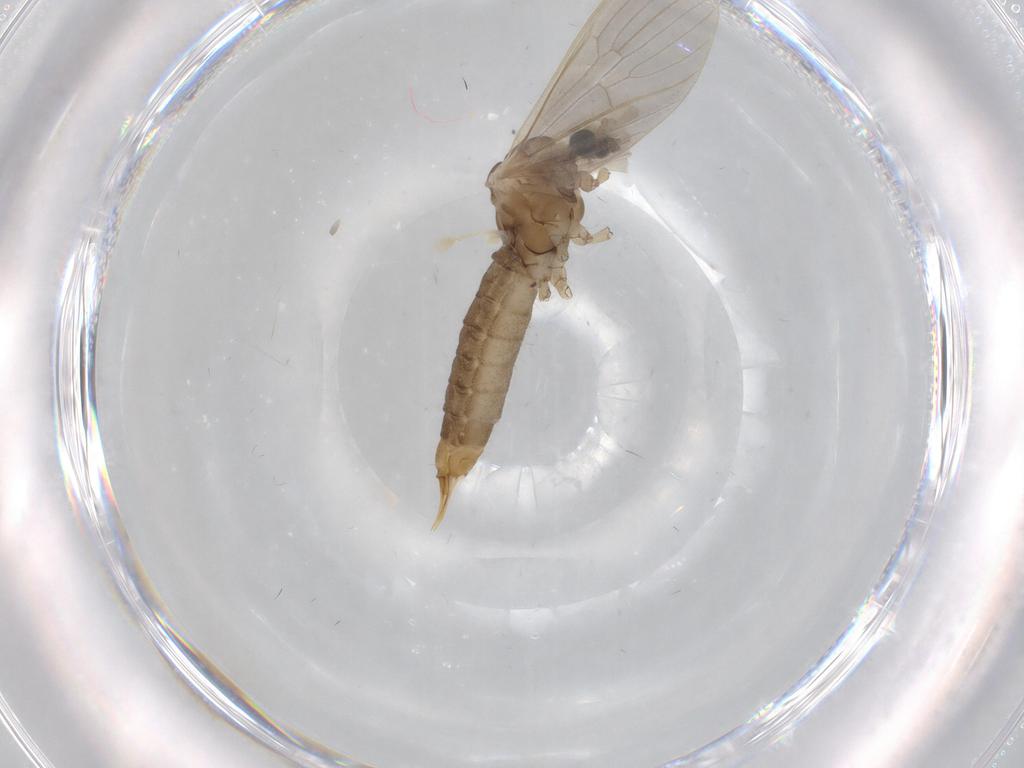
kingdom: Animalia
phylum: Arthropoda
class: Insecta
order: Diptera
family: Limoniidae
